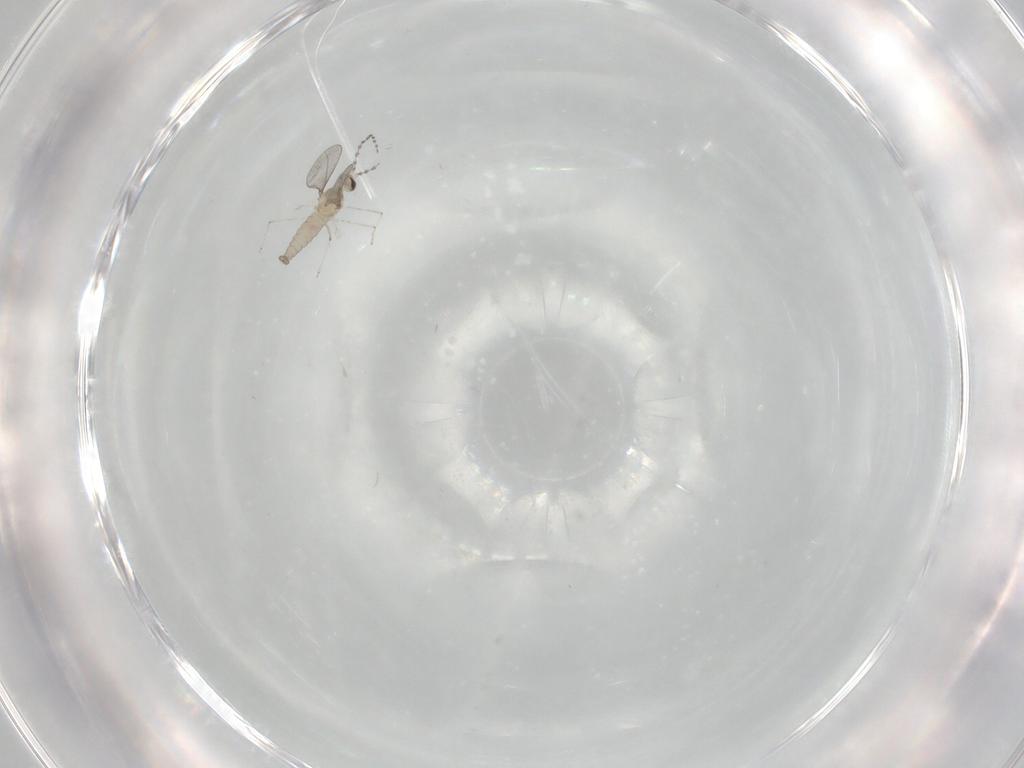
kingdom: Animalia
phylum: Arthropoda
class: Insecta
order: Diptera
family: Cecidomyiidae
